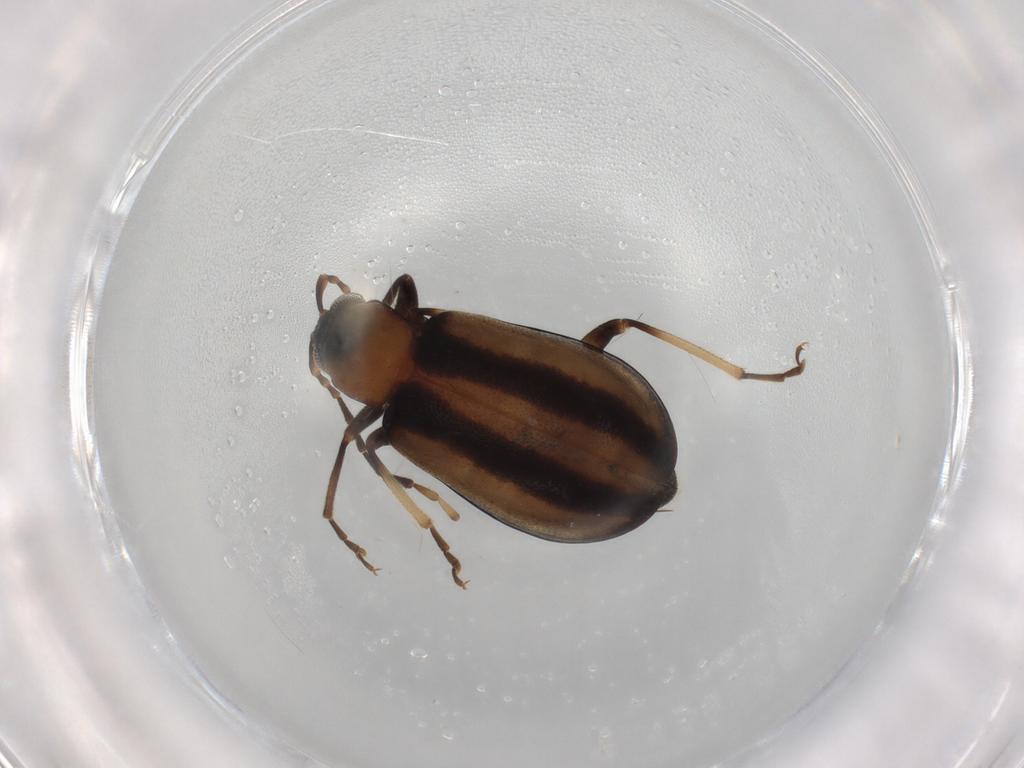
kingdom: Animalia
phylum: Arthropoda
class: Insecta
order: Coleoptera
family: Chrysomelidae
